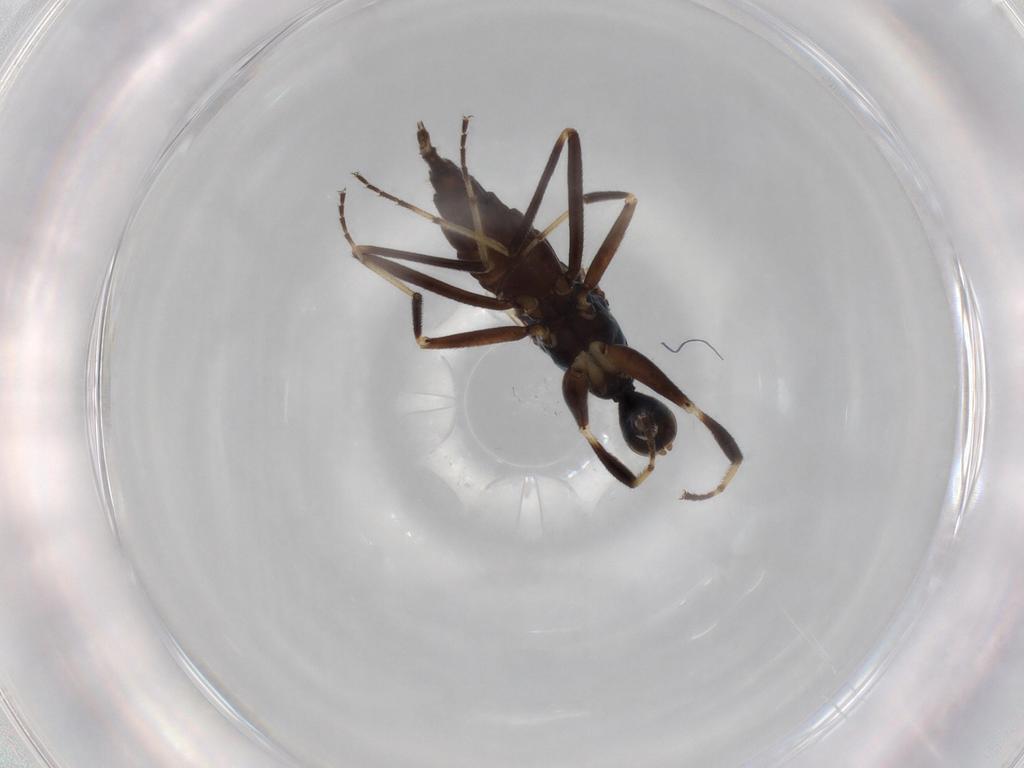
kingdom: Animalia
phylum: Arthropoda
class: Insecta
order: Diptera
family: Hybotidae
